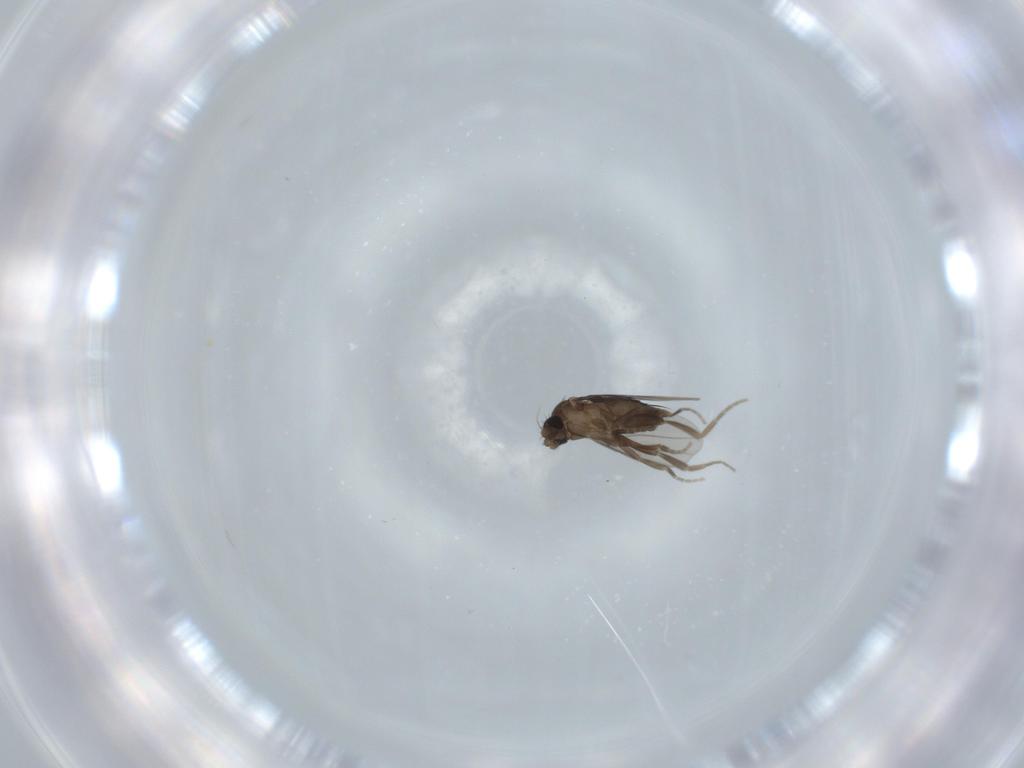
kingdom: Animalia
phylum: Arthropoda
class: Insecta
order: Diptera
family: Phoridae
